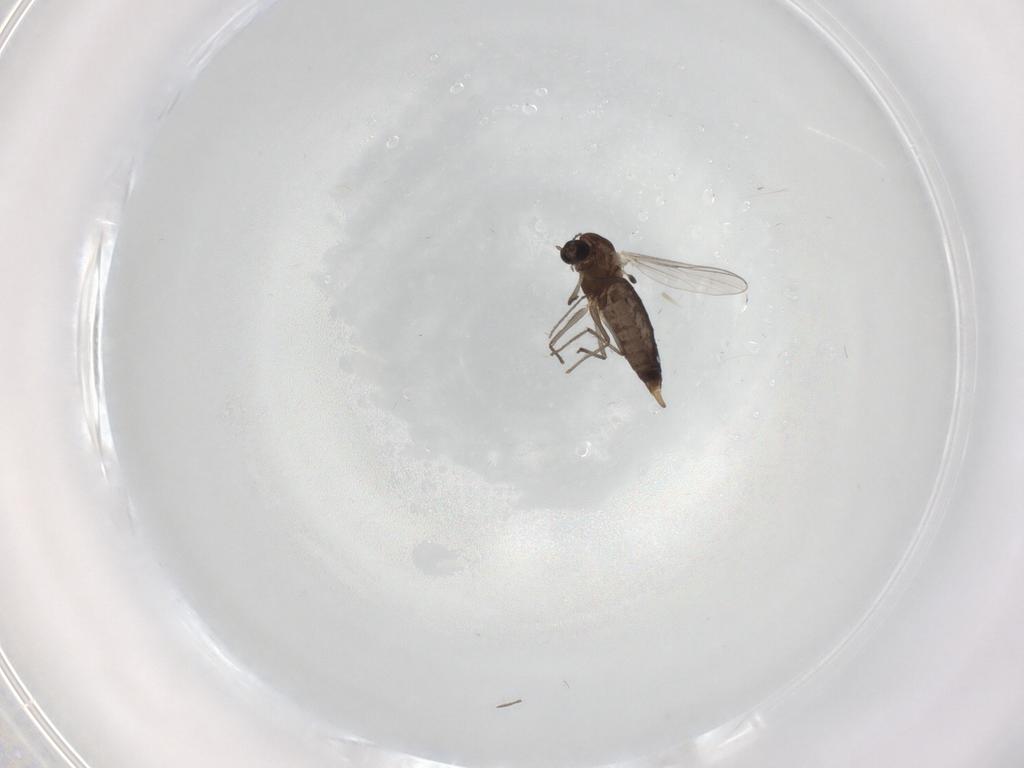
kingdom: Animalia
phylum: Arthropoda
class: Insecta
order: Diptera
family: Chironomidae
